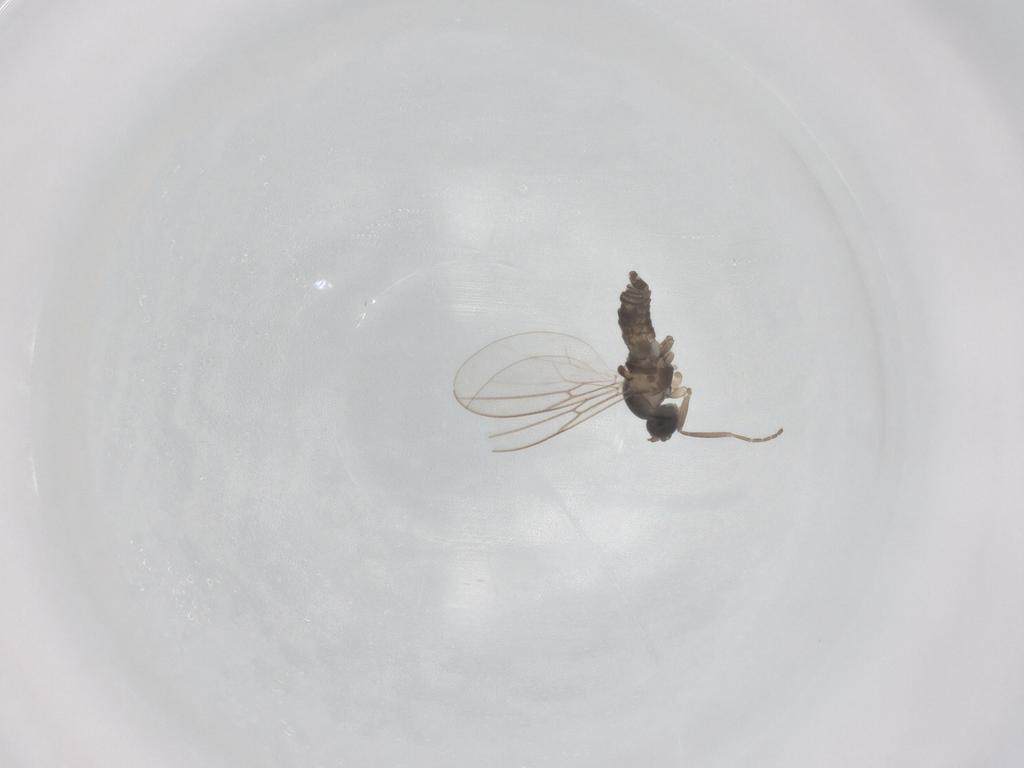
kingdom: Animalia
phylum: Arthropoda
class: Insecta
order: Diptera
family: Cecidomyiidae
